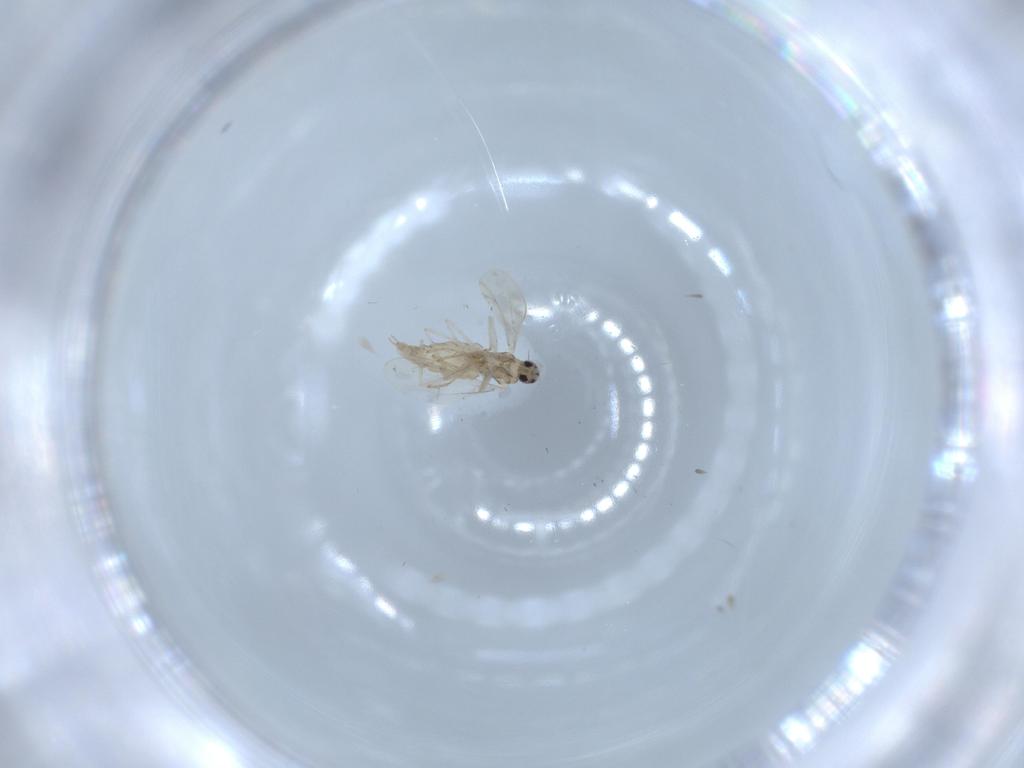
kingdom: Animalia
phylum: Arthropoda
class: Insecta
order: Diptera
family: Cecidomyiidae
